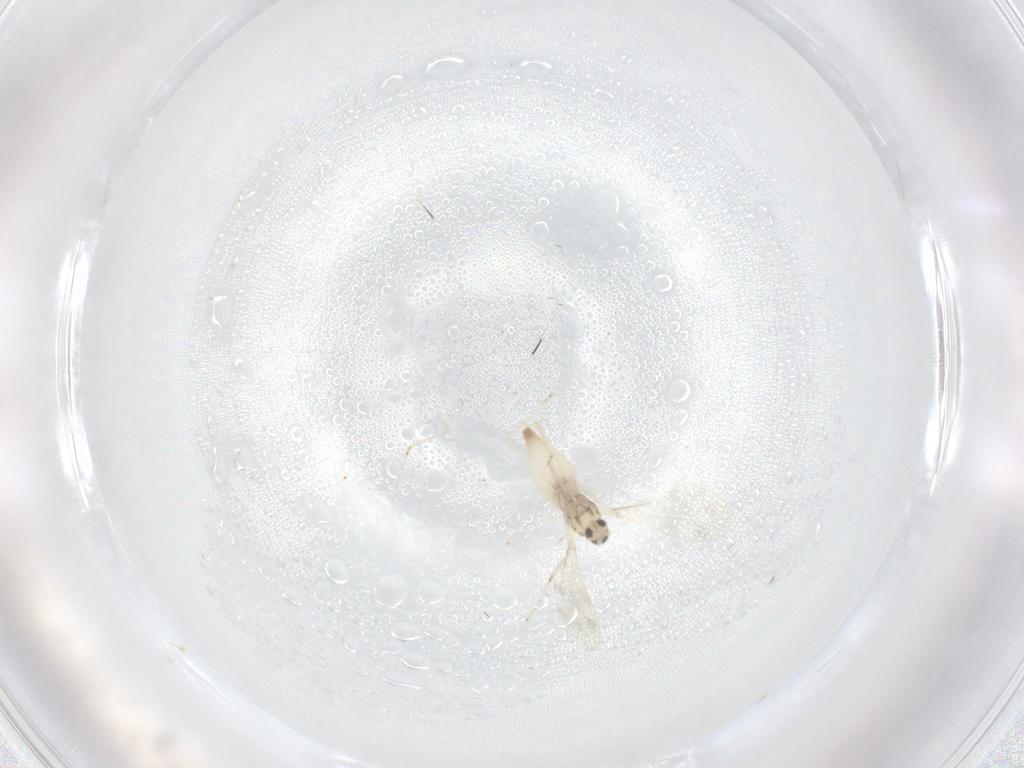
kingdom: Animalia
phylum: Arthropoda
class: Insecta
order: Diptera
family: Cecidomyiidae
